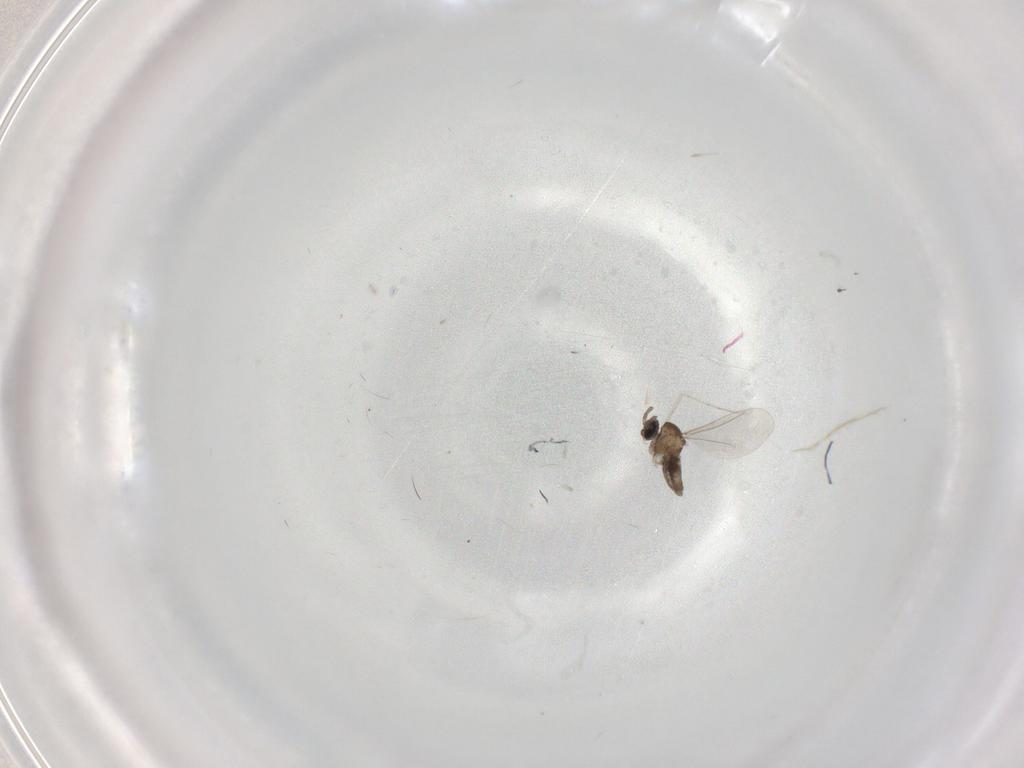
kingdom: Animalia
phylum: Arthropoda
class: Insecta
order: Diptera
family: Cecidomyiidae
